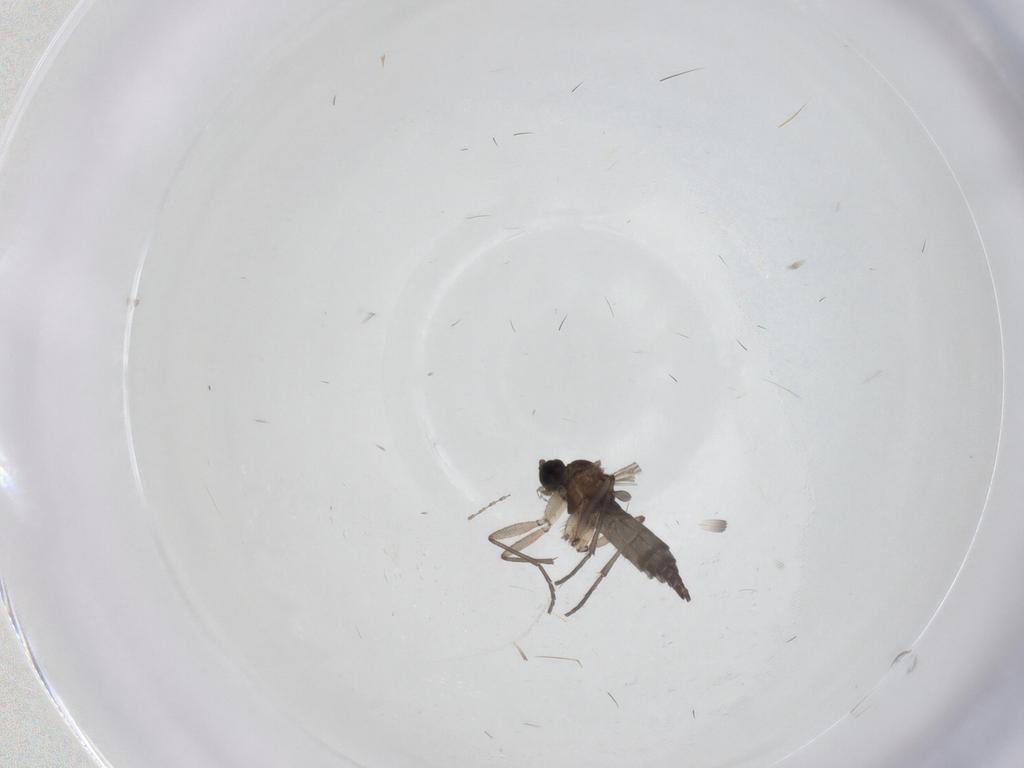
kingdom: Animalia
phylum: Arthropoda
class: Insecta
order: Diptera
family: Sciaridae
